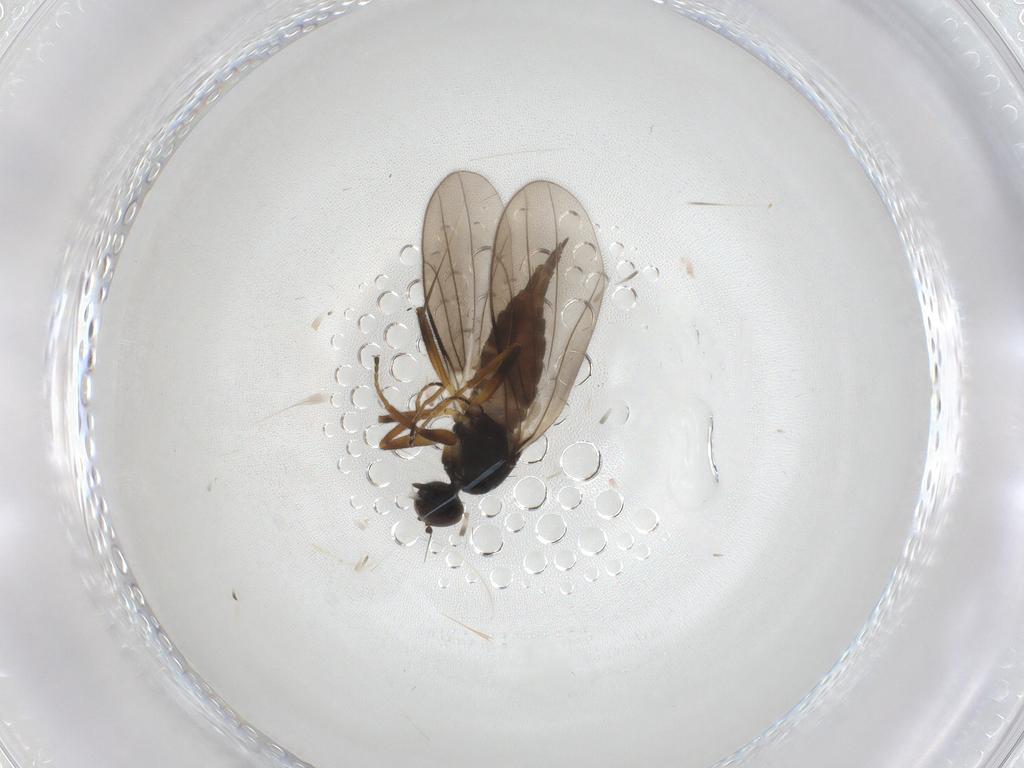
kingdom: Animalia
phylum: Arthropoda
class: Insecta
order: Diptera
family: Hybotidae
